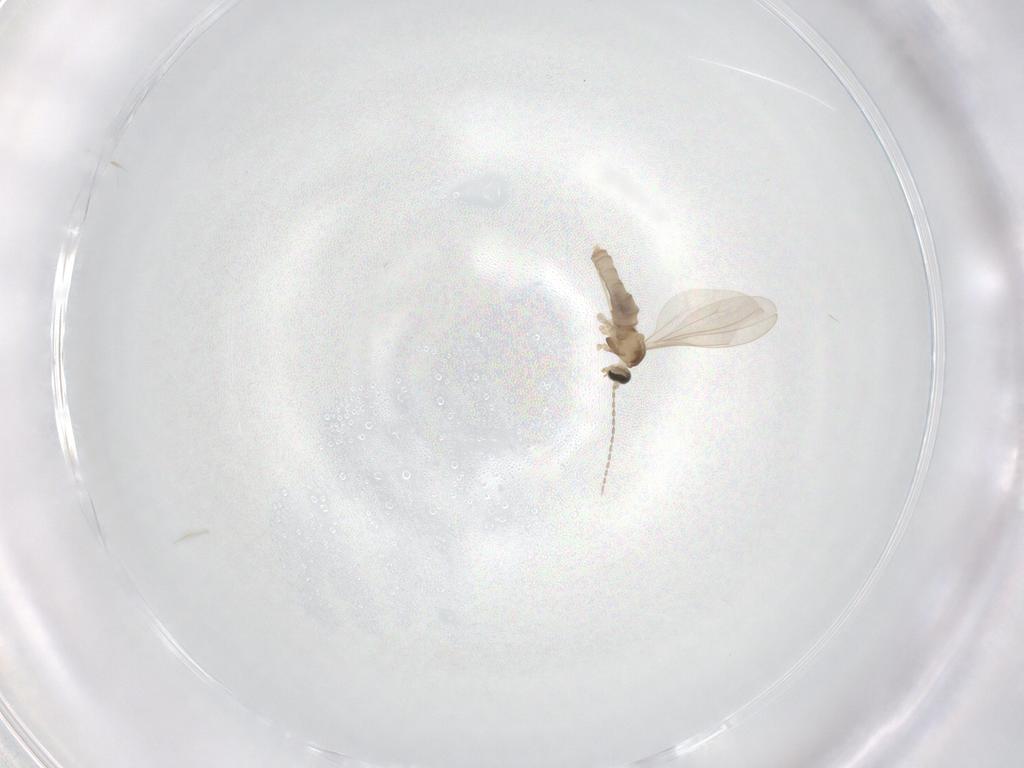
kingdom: Animalia
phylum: Arthropoda
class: Insecta
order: Diptera
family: Cecidomyiidae
